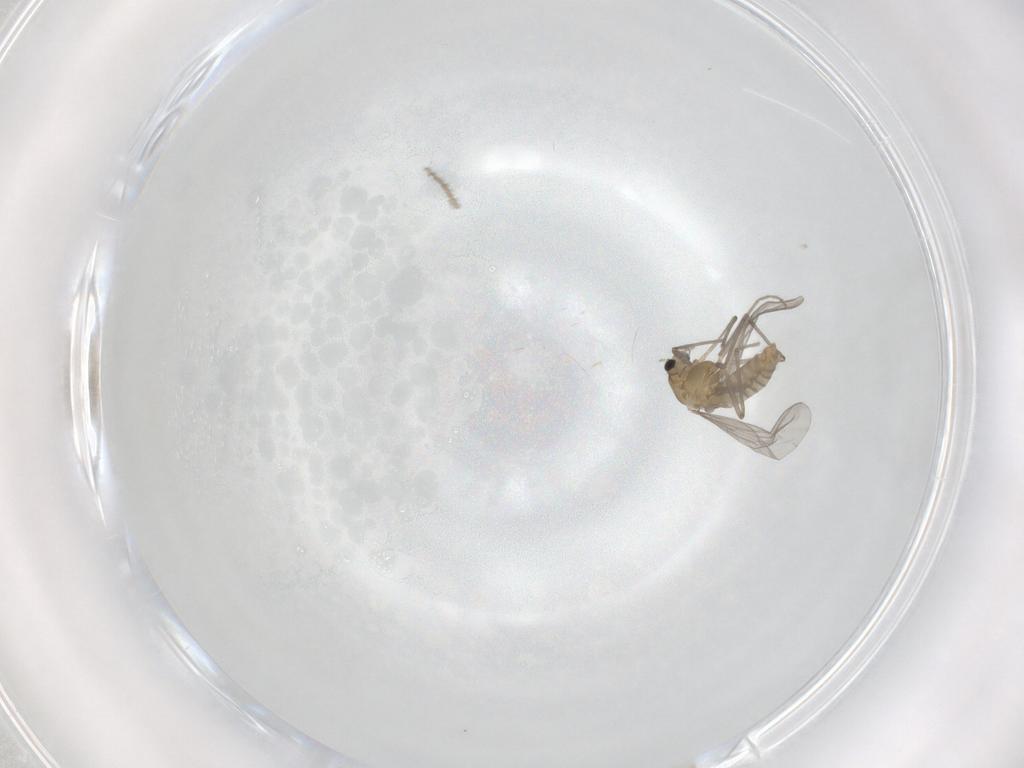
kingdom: Animalia
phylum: Arthropoda
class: Insecta
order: Diptera
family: Chironomidae
